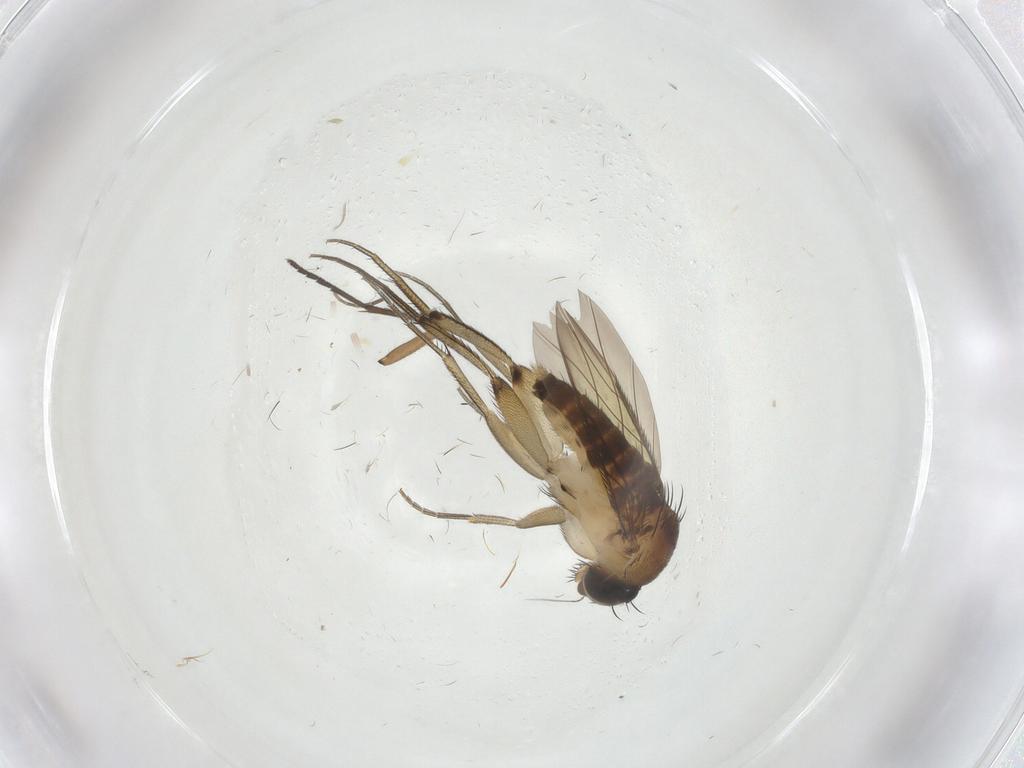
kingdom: Animalia
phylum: Arthropoda
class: Insecta
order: Diptera
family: Phoridae
